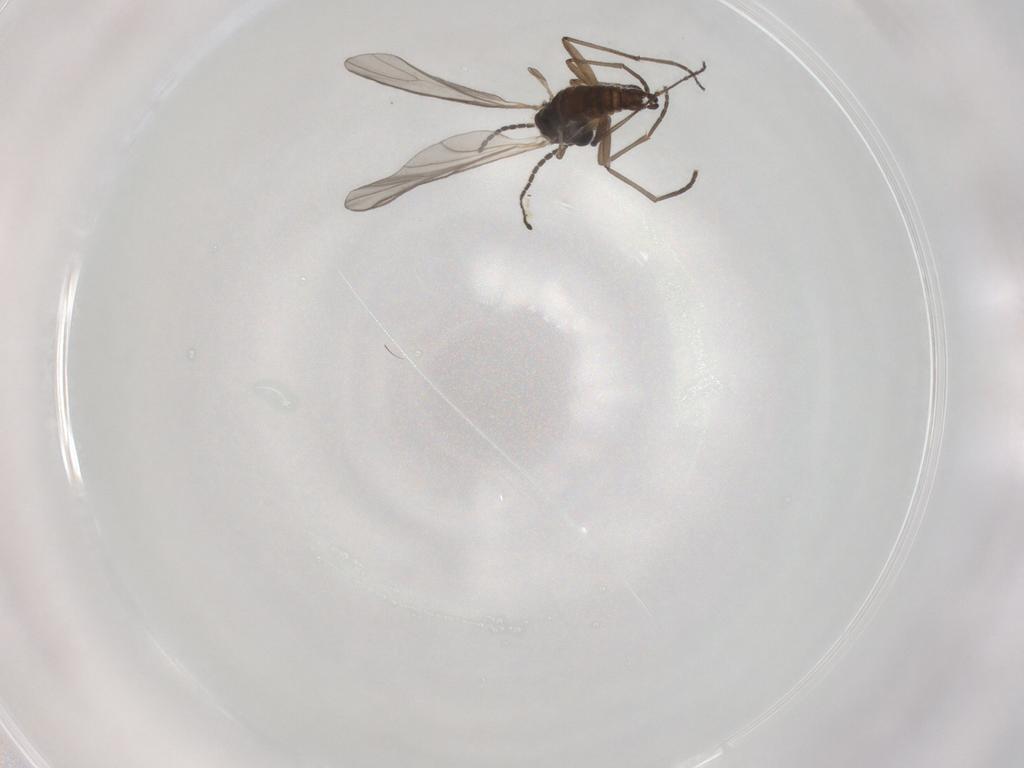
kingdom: Animalia
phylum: Arthropoda
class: Insecta
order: Diptera
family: Sciaridae
